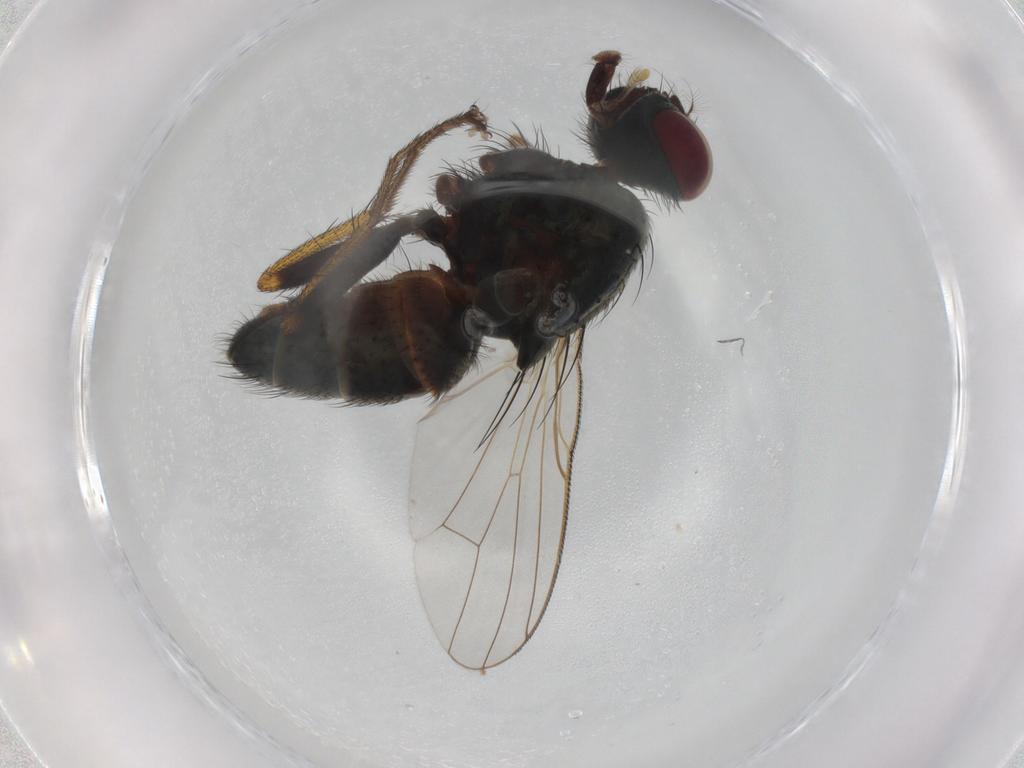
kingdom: Animalia
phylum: Arthropoda
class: Insecta
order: Diptera
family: Muscidae
